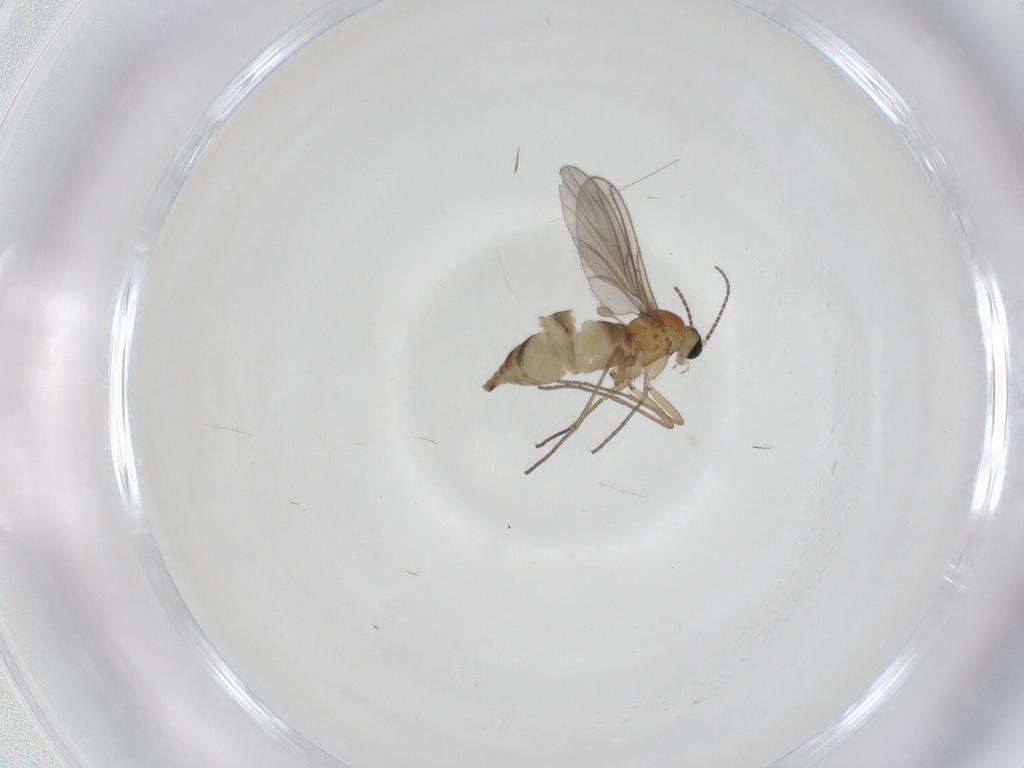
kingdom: Animalia
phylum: Arthropoda
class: Insecta
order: Diptera
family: Sciaridae
